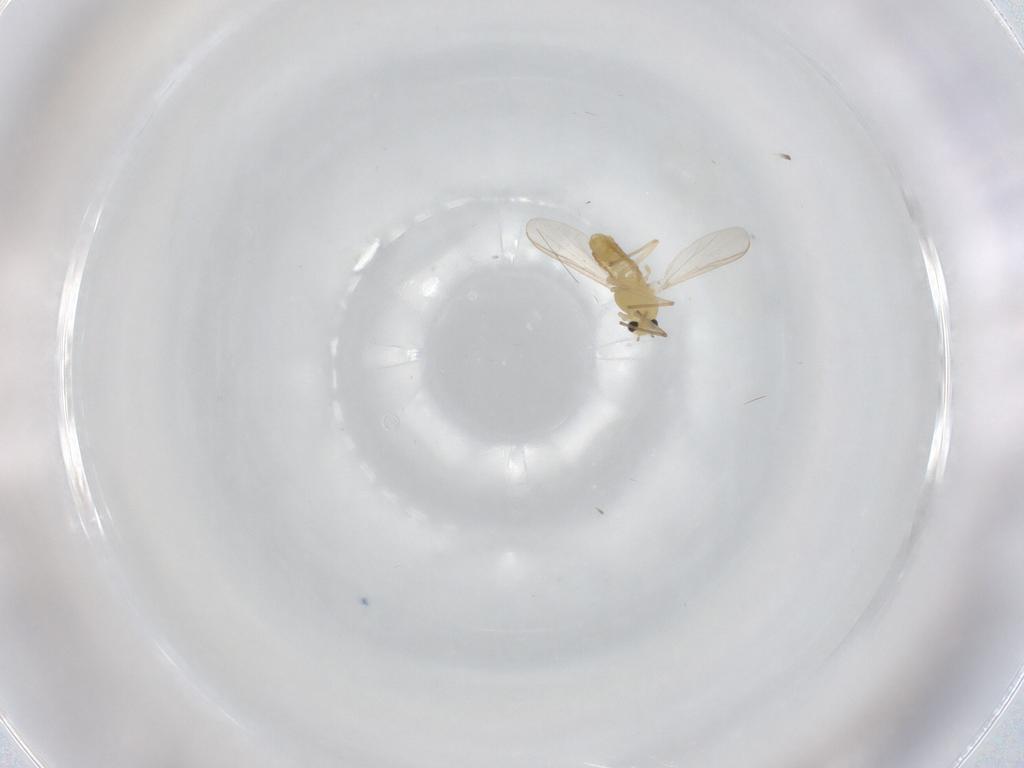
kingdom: Animalia
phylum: Arthropoda
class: Insecta
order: Diptera
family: Chironomidae
